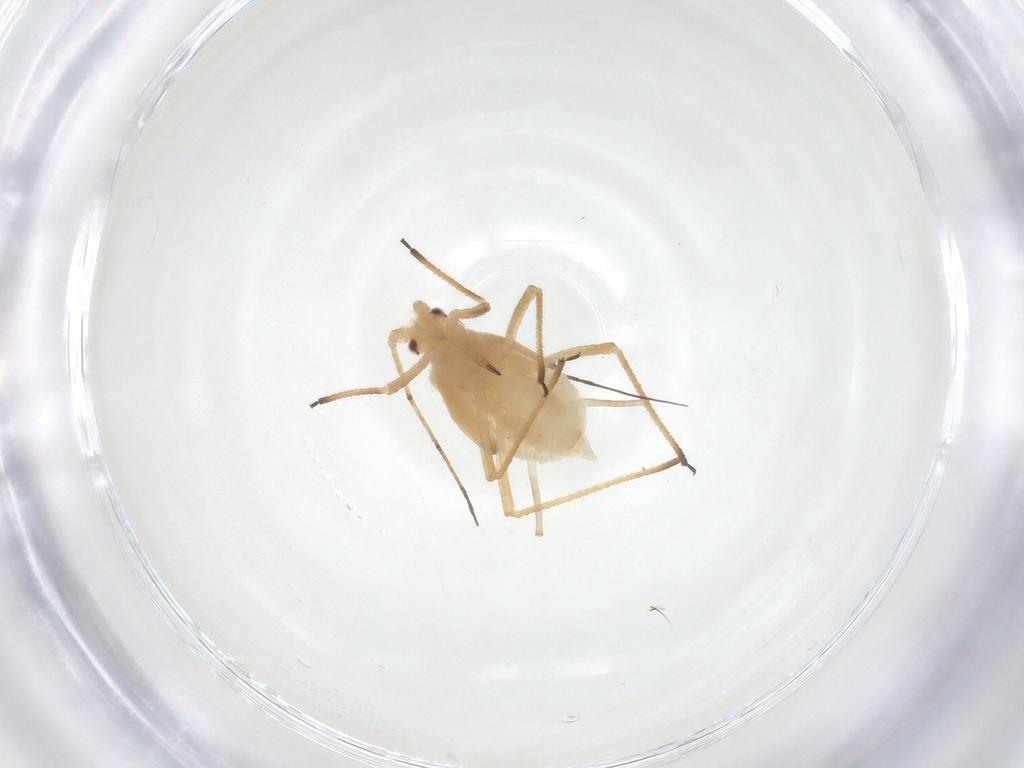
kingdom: Animalia
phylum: Arthropoda
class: Insecta
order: Hemiptera
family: Aphididae
